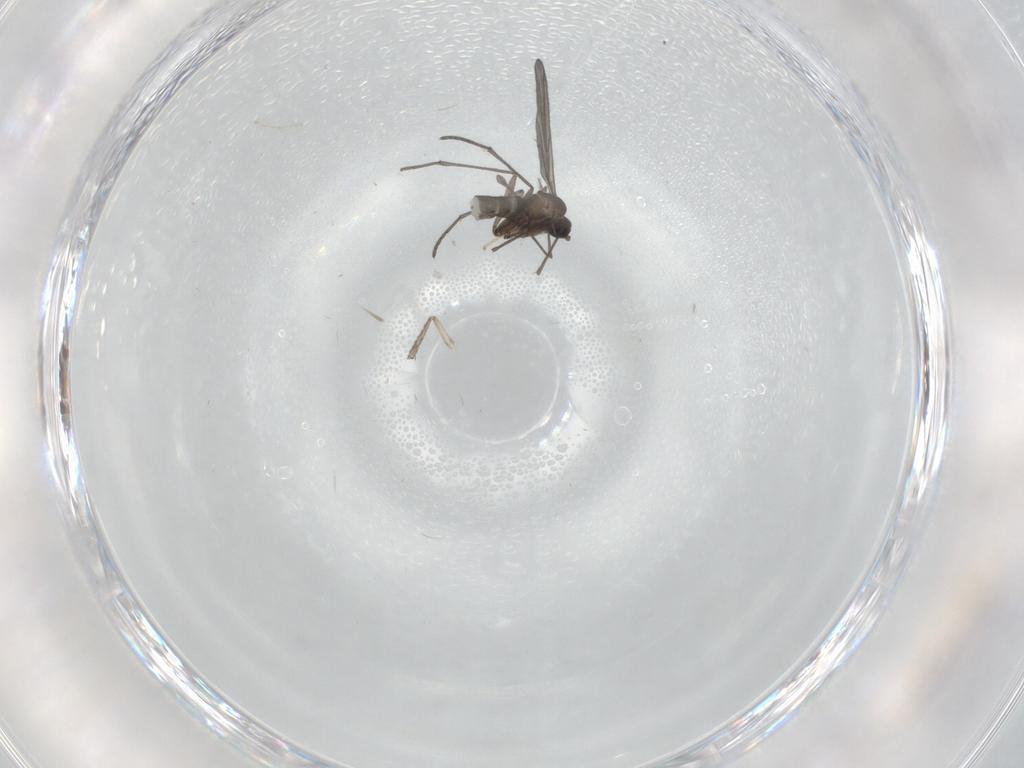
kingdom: Animalia
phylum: Arthropoda
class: Insecta
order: Diptera
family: Sciaridae
